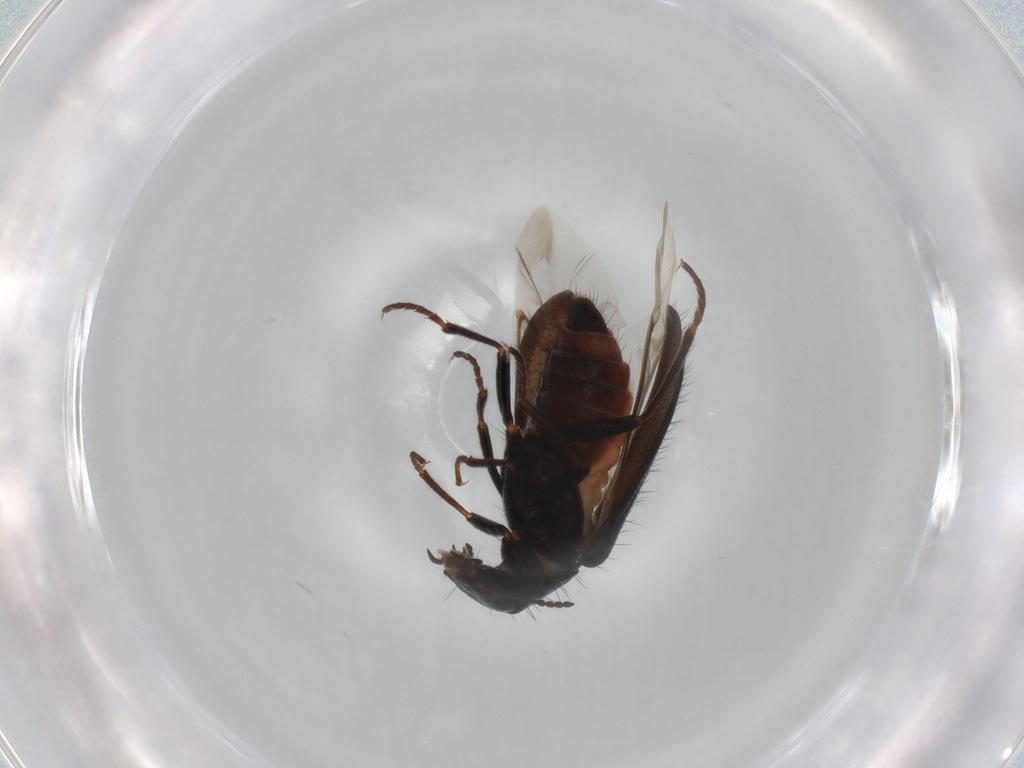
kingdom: Animalia
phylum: Arthropoda
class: Insecta
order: Coleoptera
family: Melyridae
